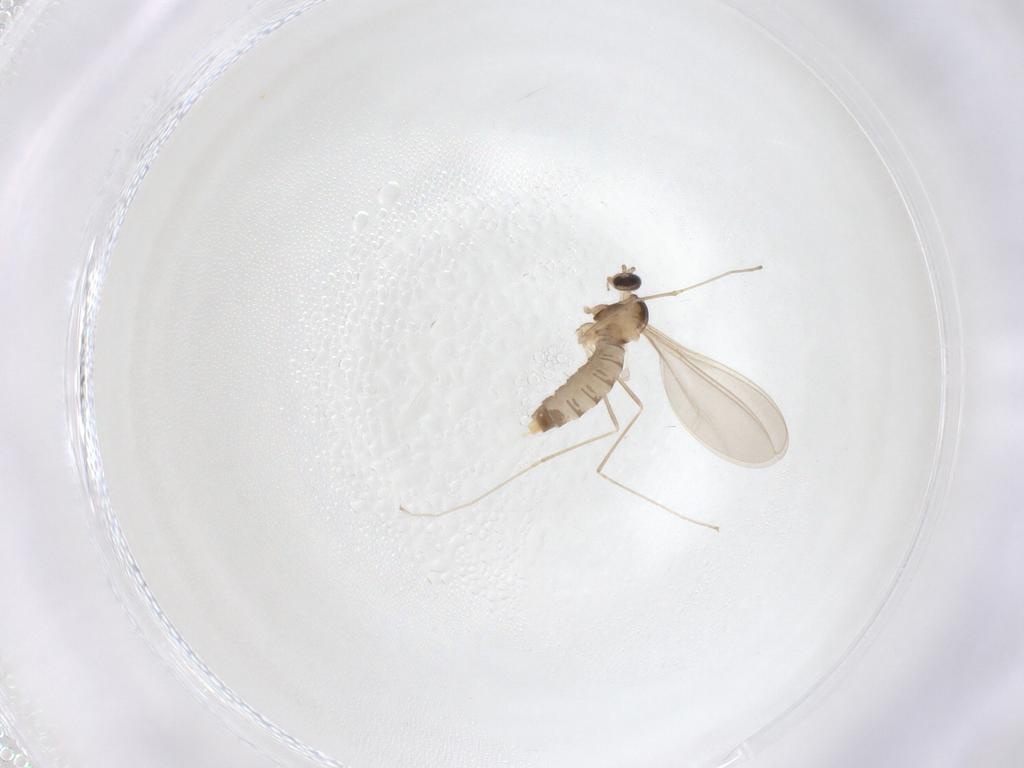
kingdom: Animalia
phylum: Arthropoda
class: Insecta
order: Diptera
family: Cecidomyiidae
